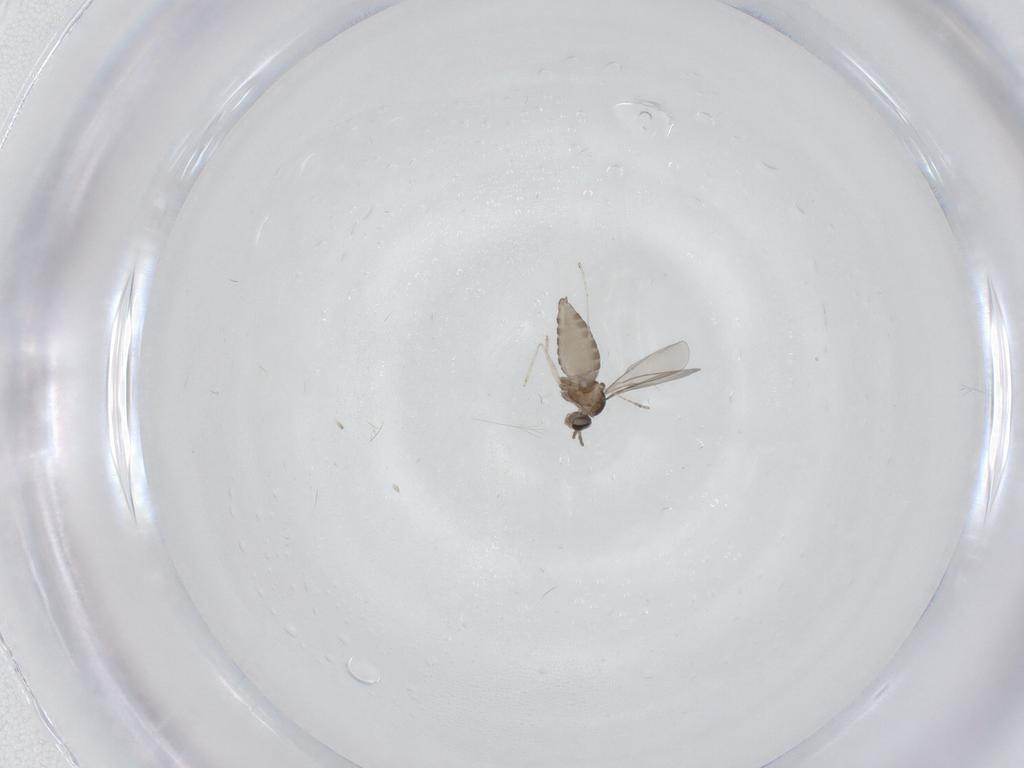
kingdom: Animalia
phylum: Arthropoda
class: Insecta
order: Diptera
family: Cecidomyiidae
